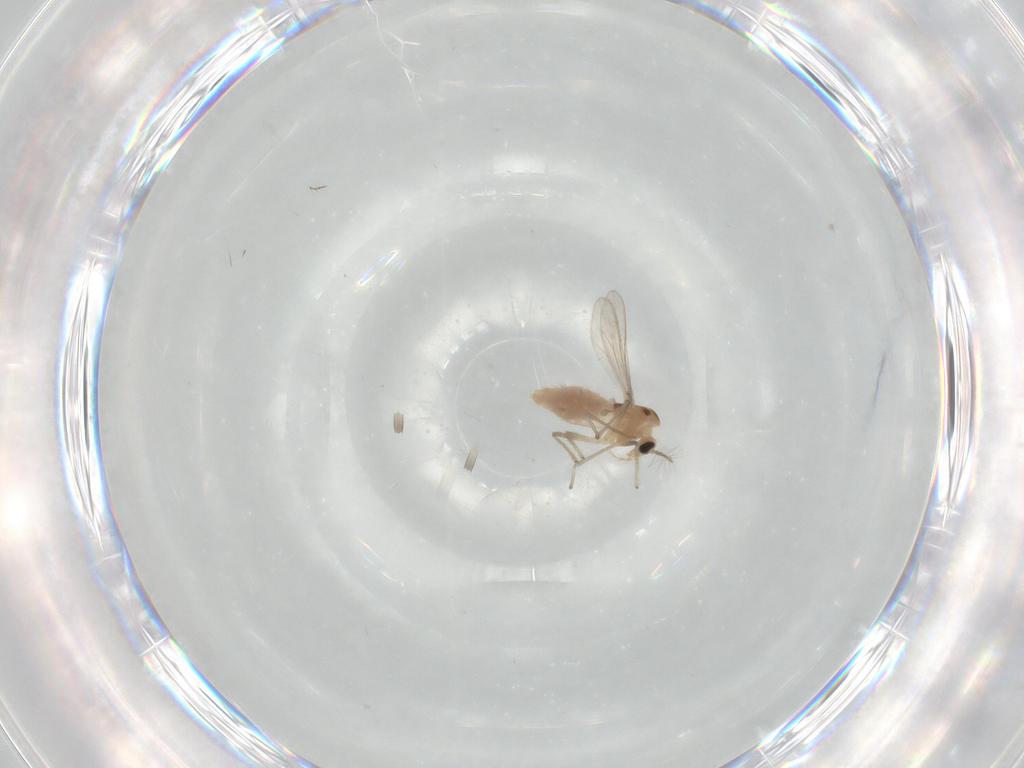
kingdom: Animalia
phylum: Arthropoda
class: Insecta
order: Diptera
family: Chironomidae
